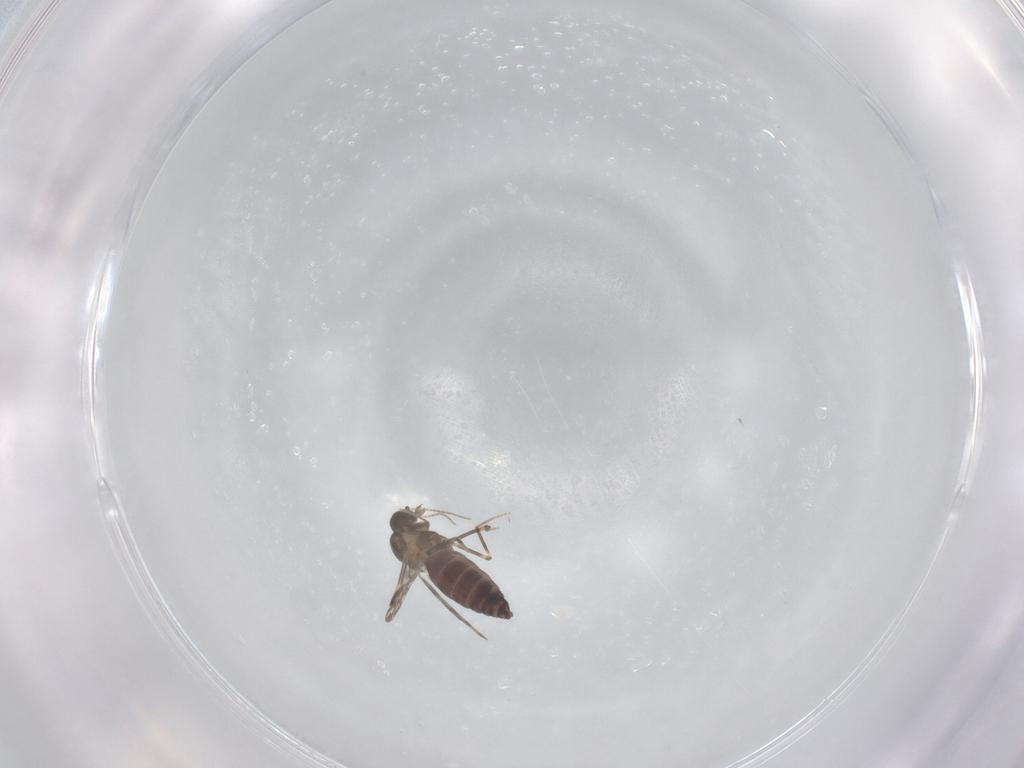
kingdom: Animalia
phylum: Arthropoda
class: Insecta
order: Diptera
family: Ceratopogonidae
